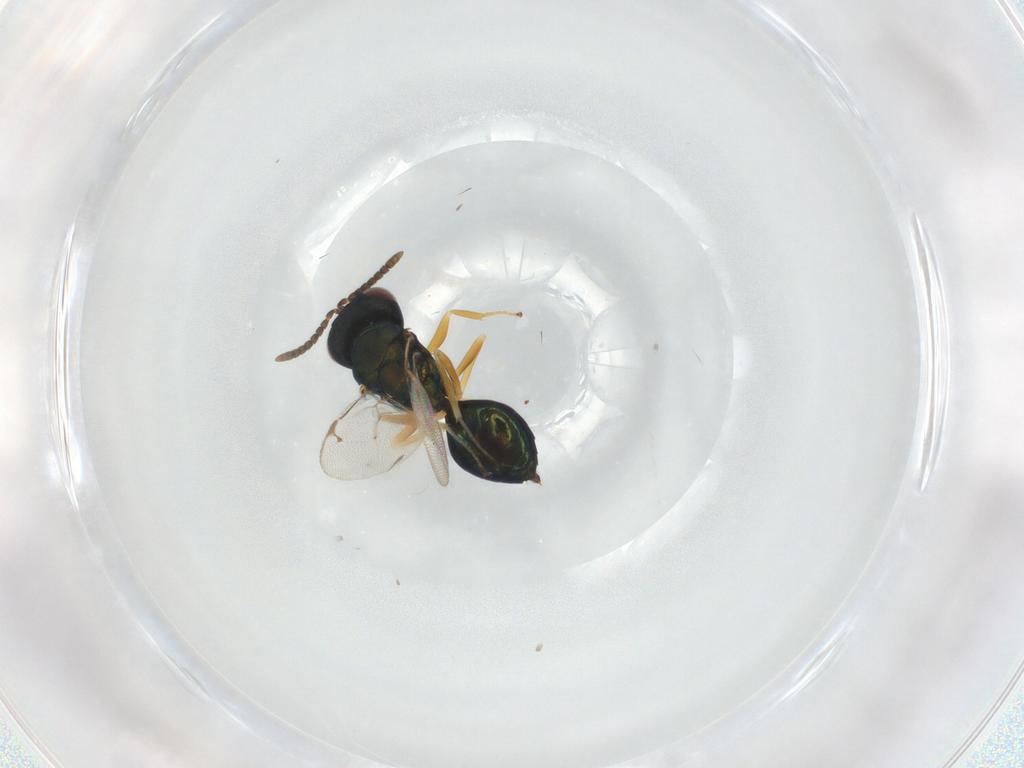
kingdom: Animalia
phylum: Arthropoda
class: Insecta
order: Hymenoptera
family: Pteromalidae
